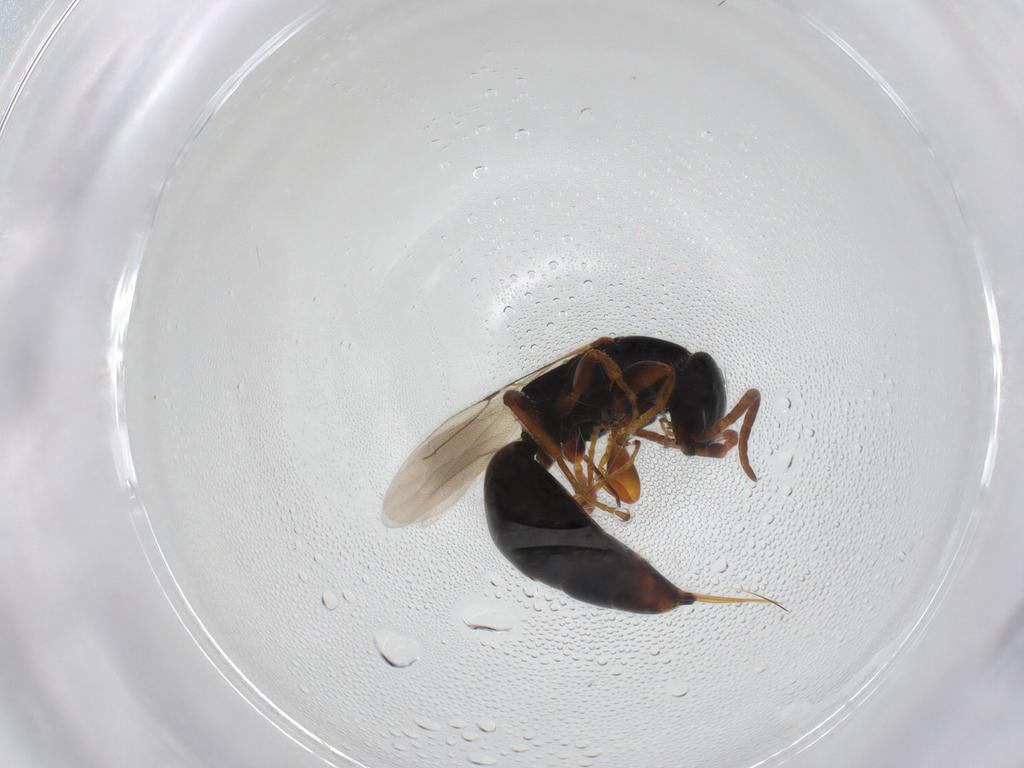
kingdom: Animalia
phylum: Arthropoda
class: Insecta
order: Hymenoptera
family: Bethylidae
